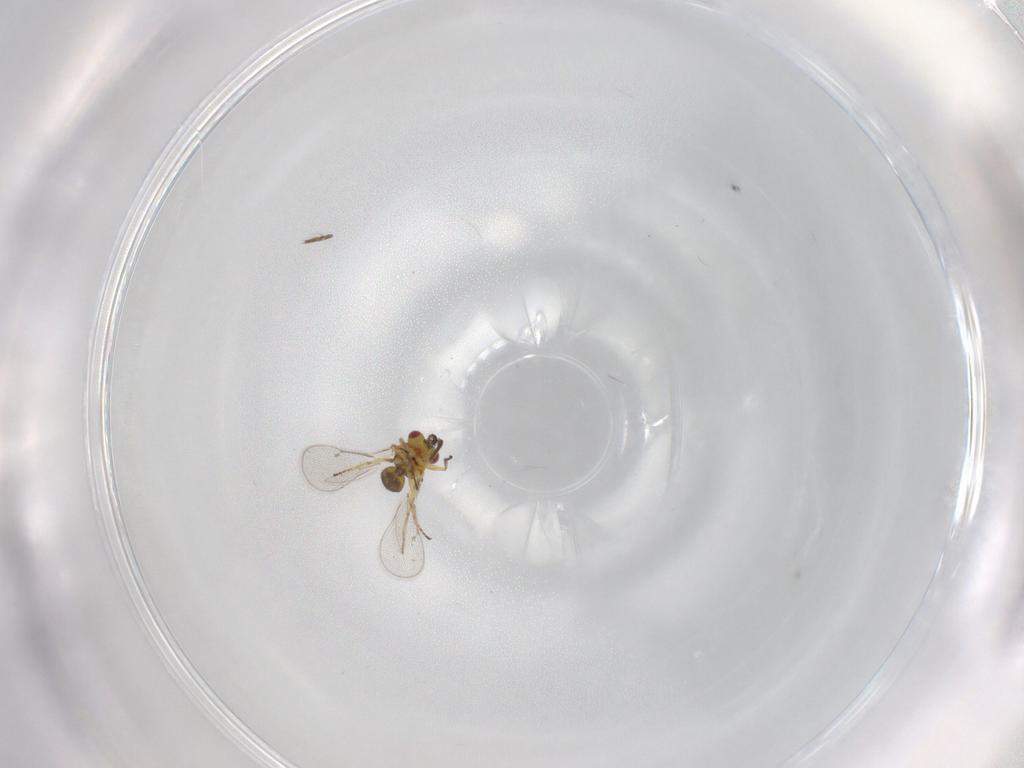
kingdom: Animalia
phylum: Arthropoda
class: Insecta
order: Hymenoptera
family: Eulophidae
